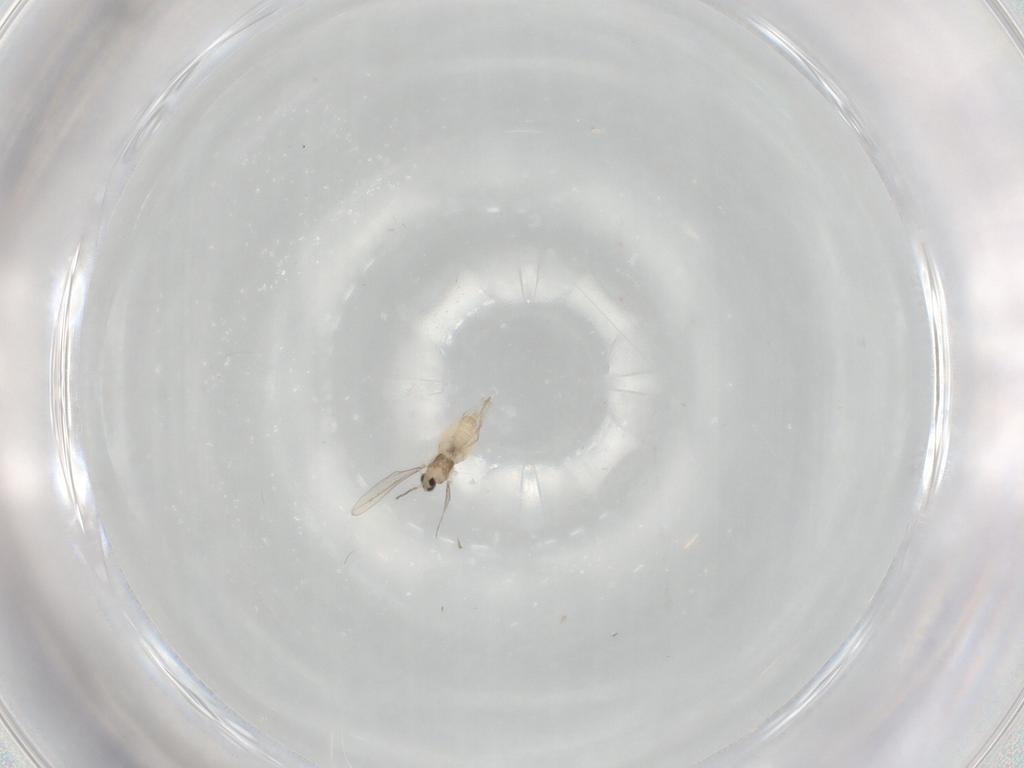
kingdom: Animalia
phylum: Arthropoda
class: Insecta
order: Diptera
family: Cecidomyiidae
